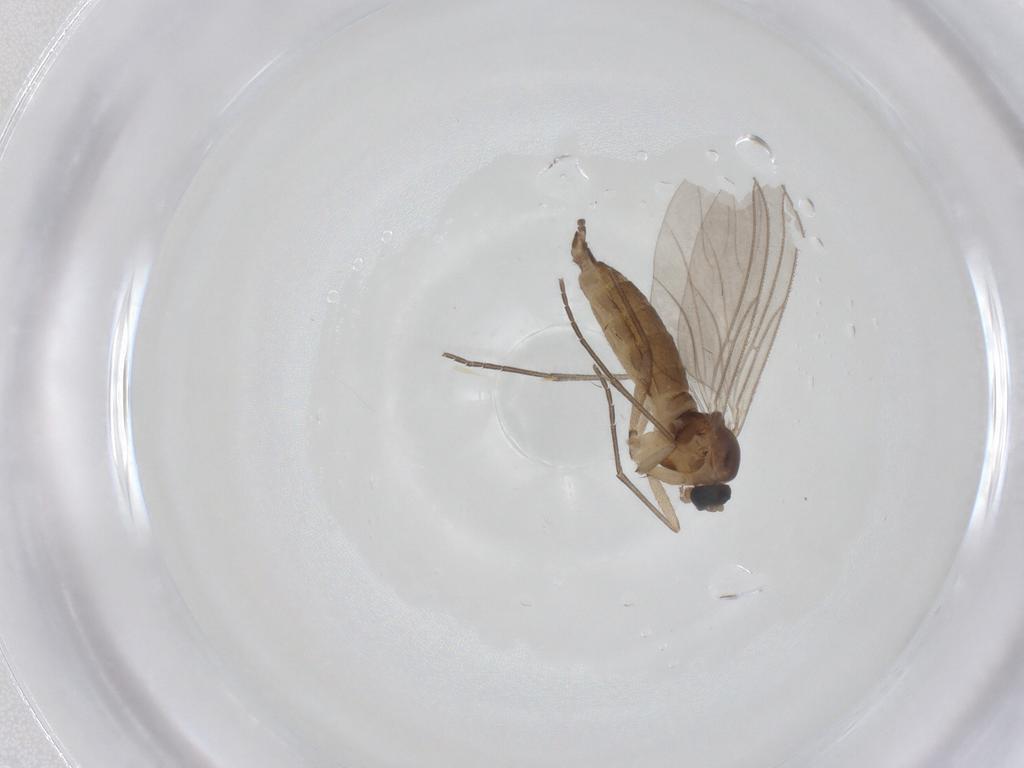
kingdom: Animalia
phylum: Arthropoda
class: Insecta
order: Diptera
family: Sciaridae
